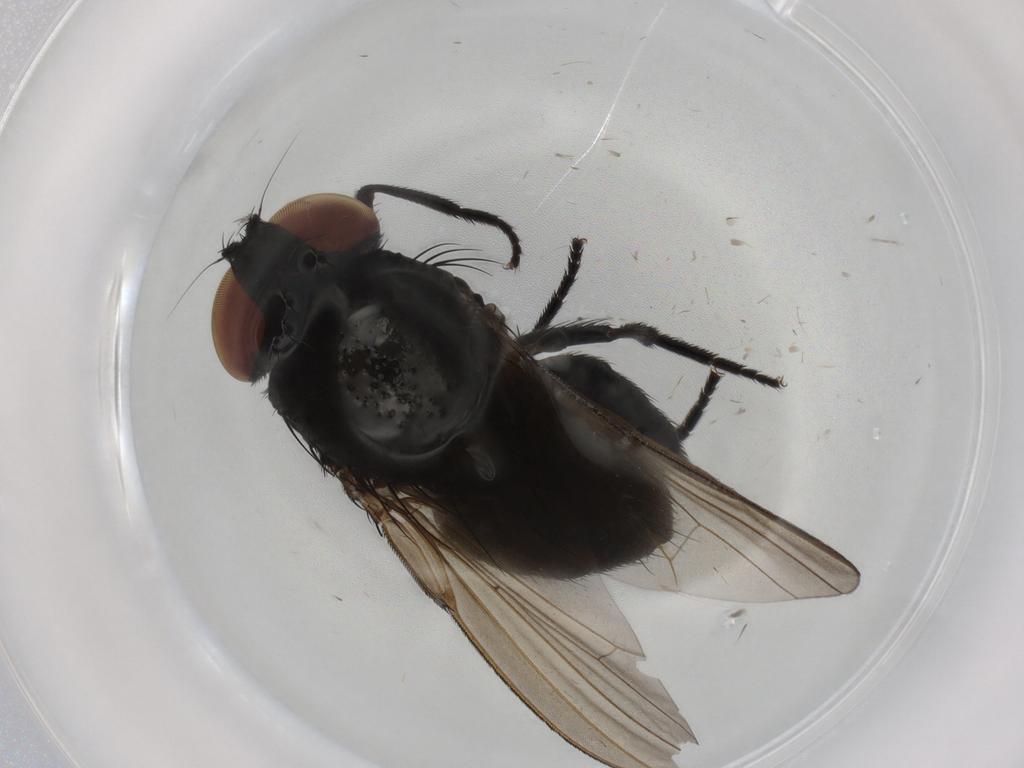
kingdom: Animalia
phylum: Arthropoda
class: Insecta
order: Diptera
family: Milichiidae
